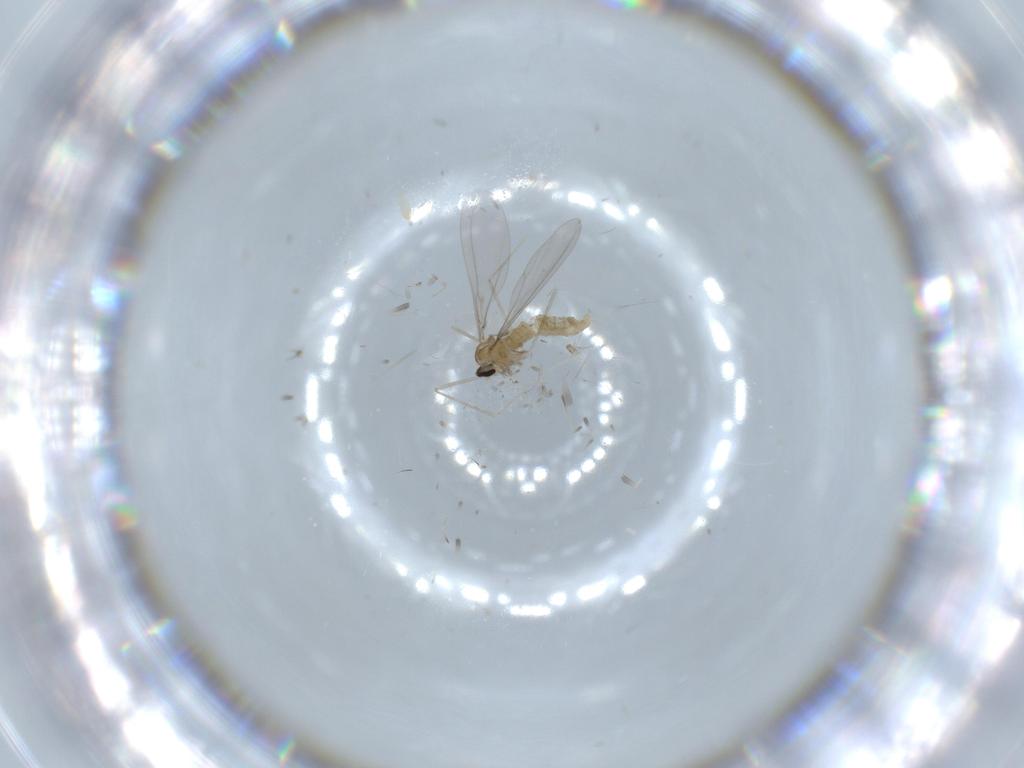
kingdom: Animalia
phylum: Arthropoda
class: Insecta
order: Diptera
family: Cecidomyiidae
